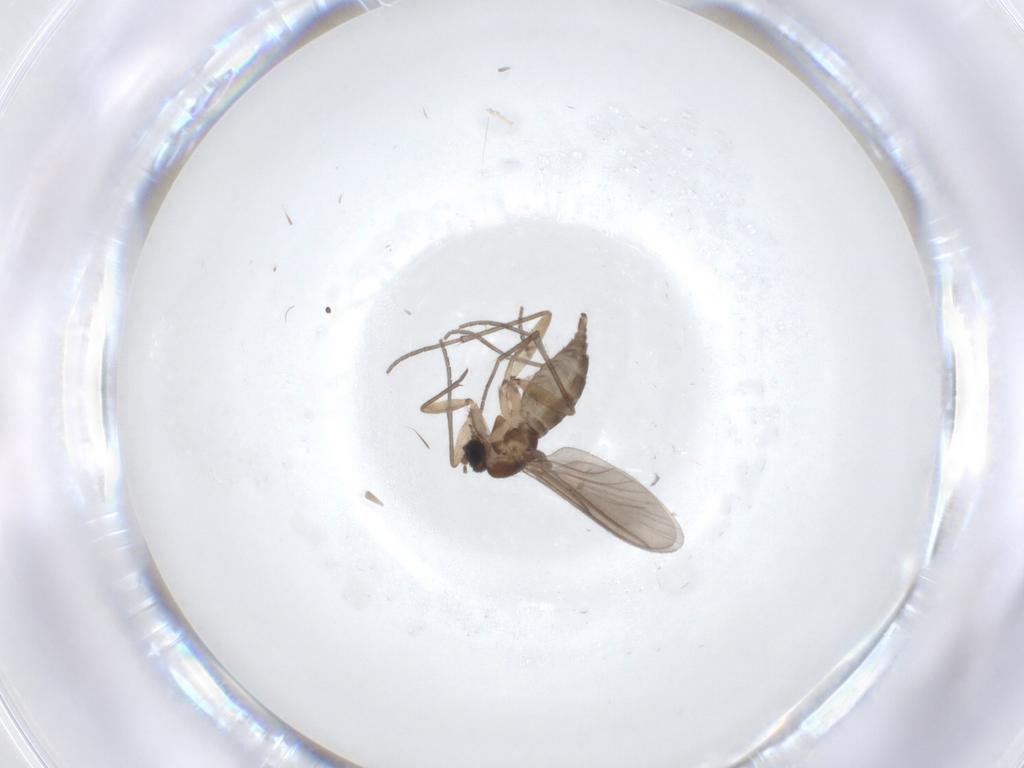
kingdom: Animalia
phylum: Arthropoda
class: Insecta
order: Diptera
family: Sciaridae
